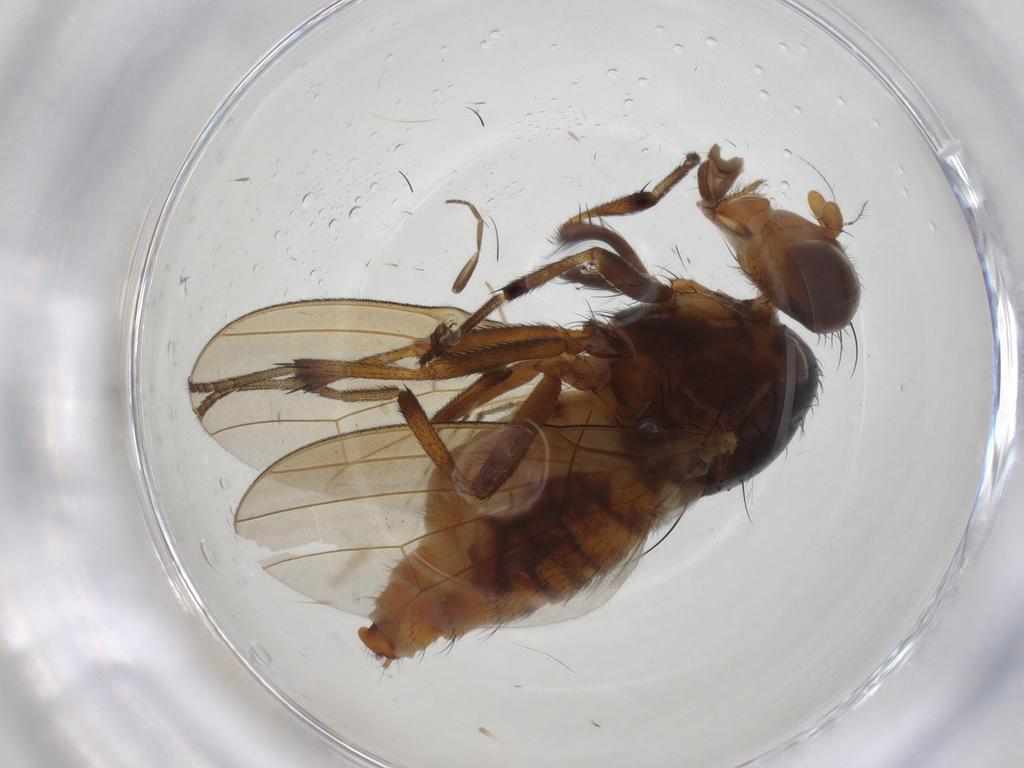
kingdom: Animalia
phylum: Arthropoda
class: Insecta
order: Diptera
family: Chironomidae
